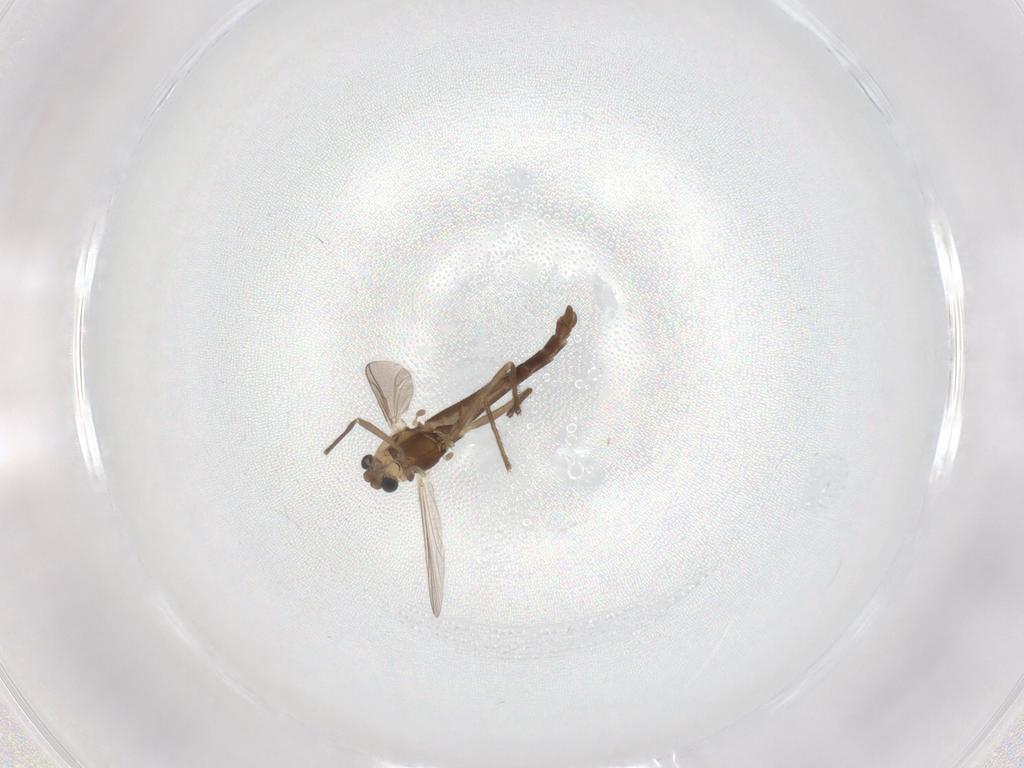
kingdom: Animalia
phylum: Arthropoda
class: Insecta
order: Diptera
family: Chironomidae
